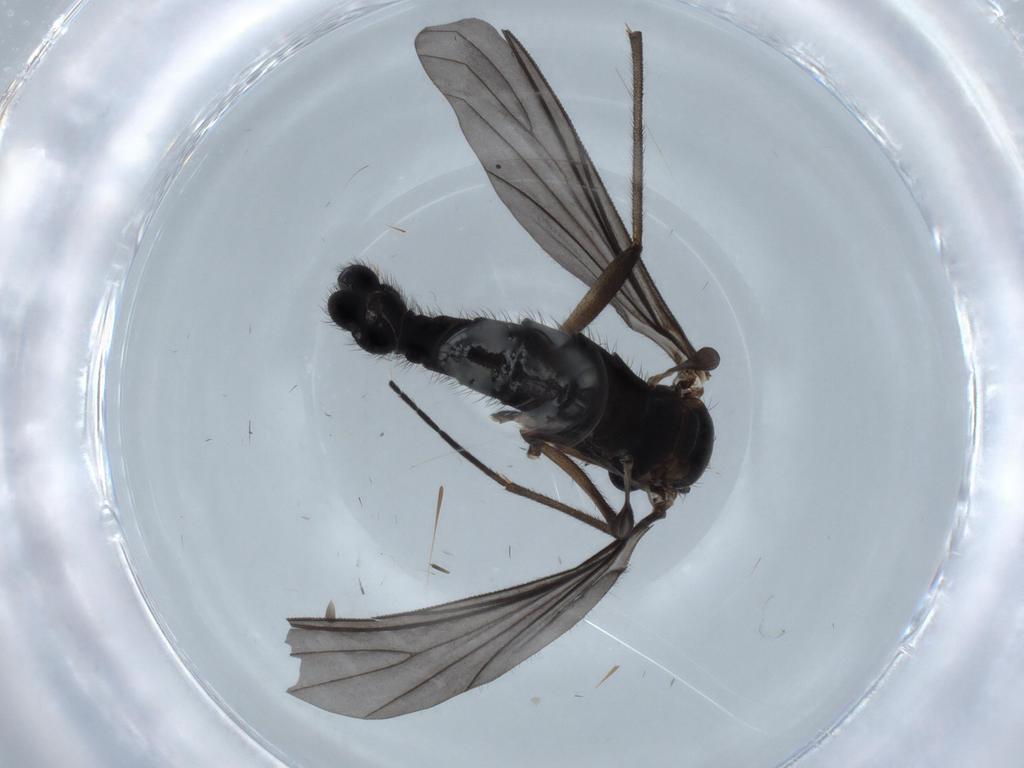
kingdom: Animalia
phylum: Arthropoda
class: Insecta
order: Diptera
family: Sciaridae
